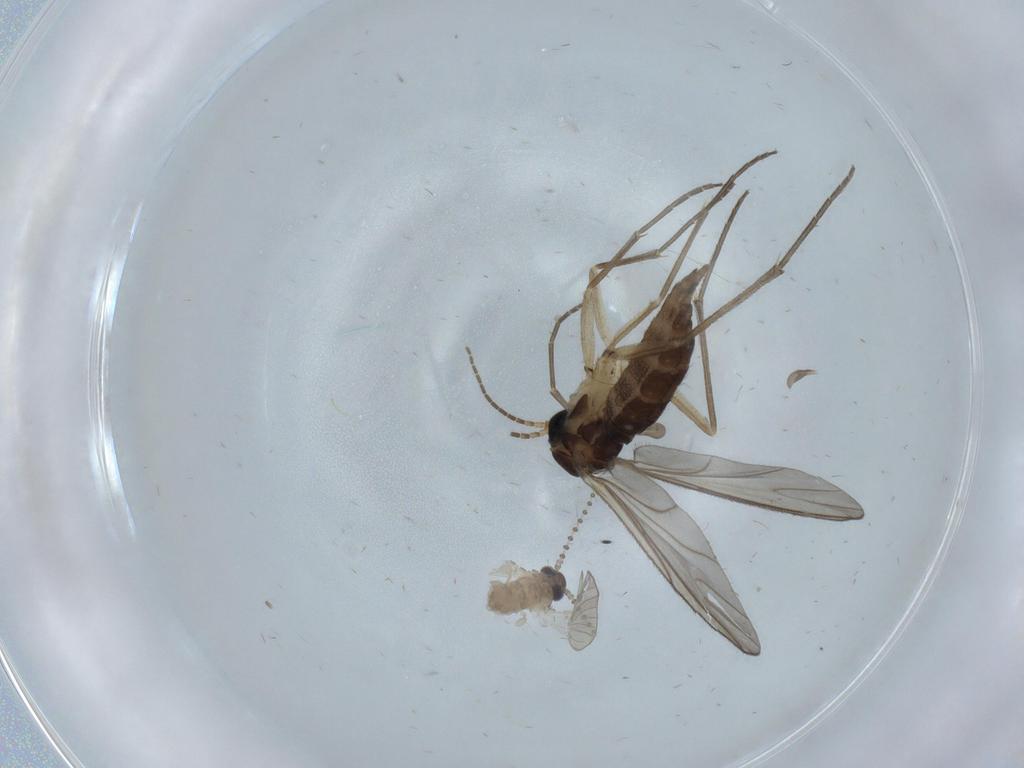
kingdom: Animalia
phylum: Arthropoda
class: Insecta
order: Diptera
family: Sciaridae
